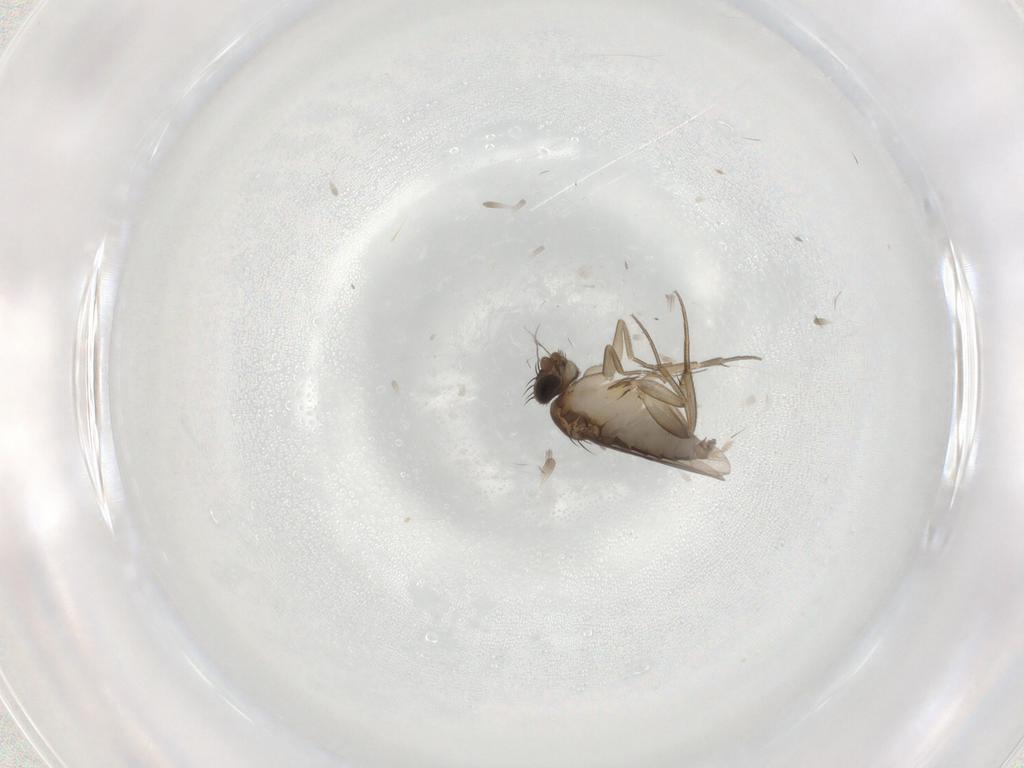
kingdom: Animalia
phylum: Arthropoda
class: Insecta
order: Diptera
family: Phoridae
